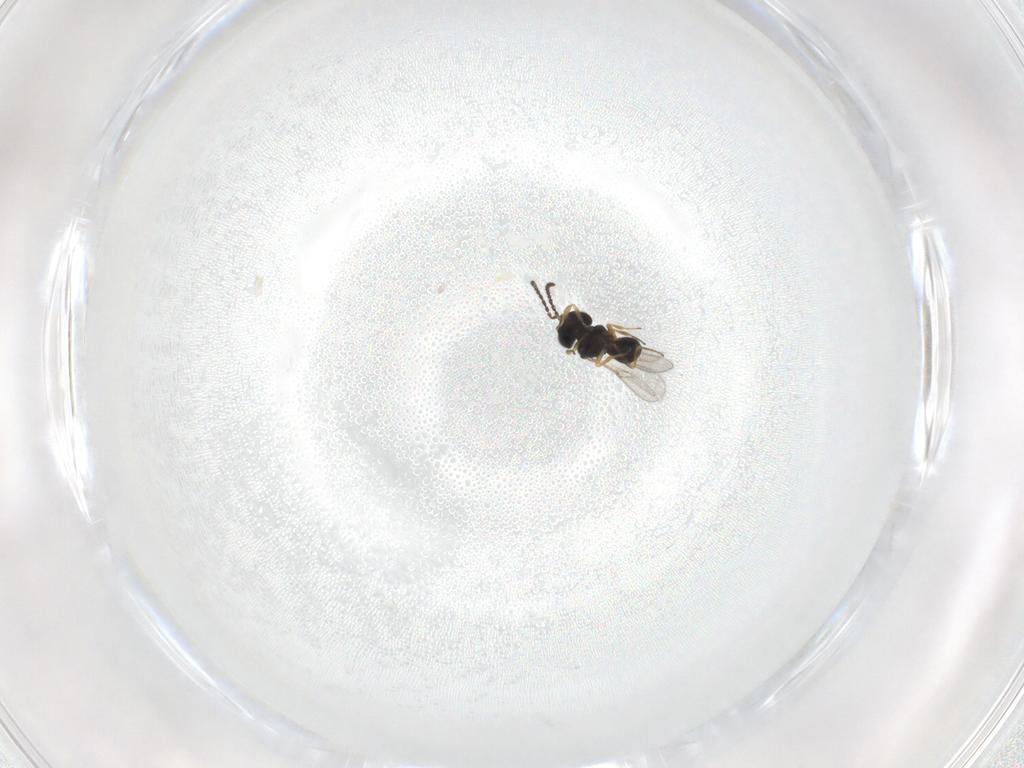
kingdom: Animalia
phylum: Arthropoda
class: Insecta
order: Hymenoptera
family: Scelionidae
